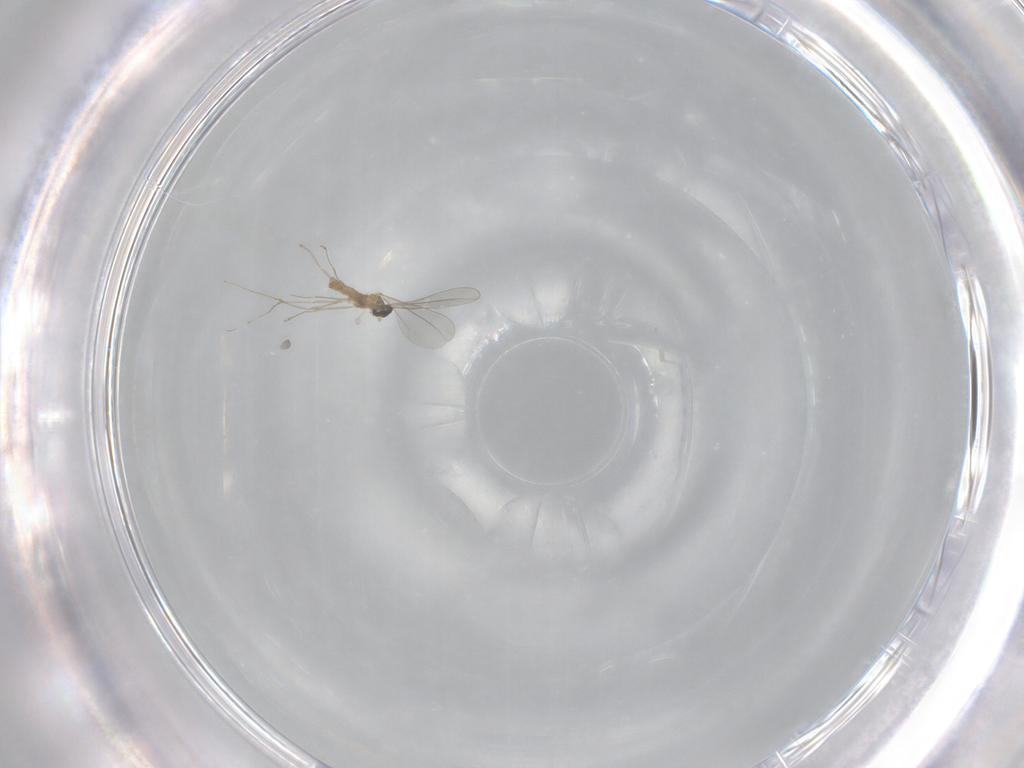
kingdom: Animalia
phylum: Arthropoda
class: Insecta
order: Diptera
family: Cecidomyiidae
